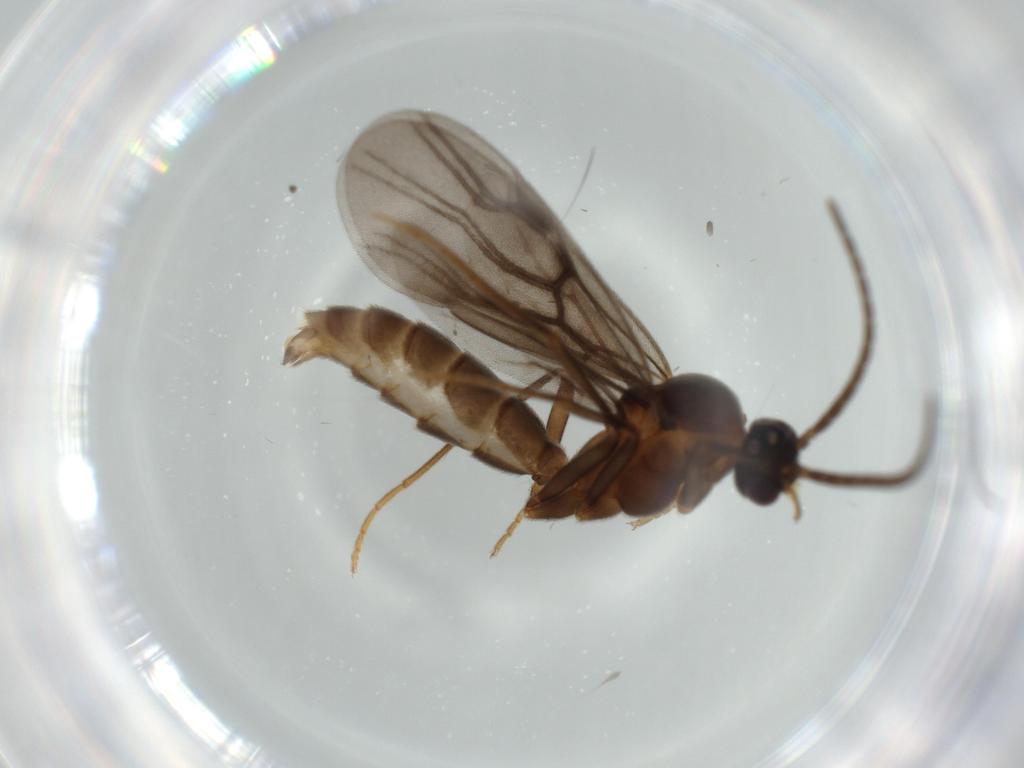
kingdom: Animalia
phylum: Arthropoda
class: Insecta
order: Hymenoptera
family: Formicidae
